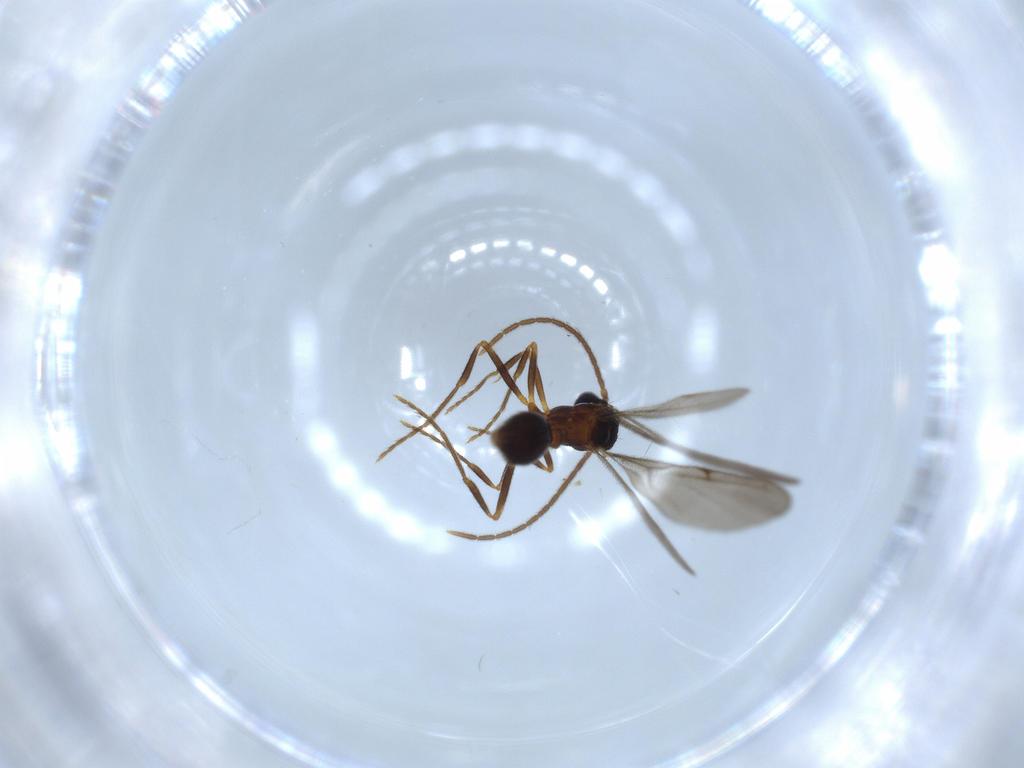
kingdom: Animalia
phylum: Arthropoda
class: Insecta
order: Hymenoptera
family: Formicidae
